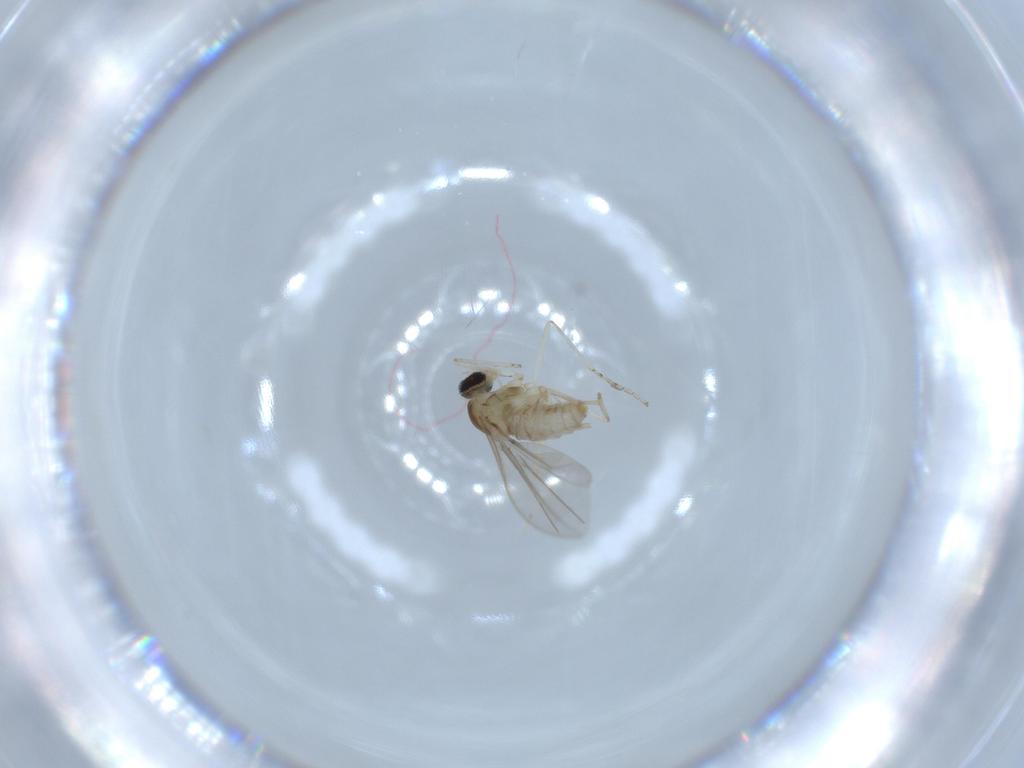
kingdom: Animalia
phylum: Arthropoda
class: Insecta
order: Diptera
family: Cecidomyiidae
